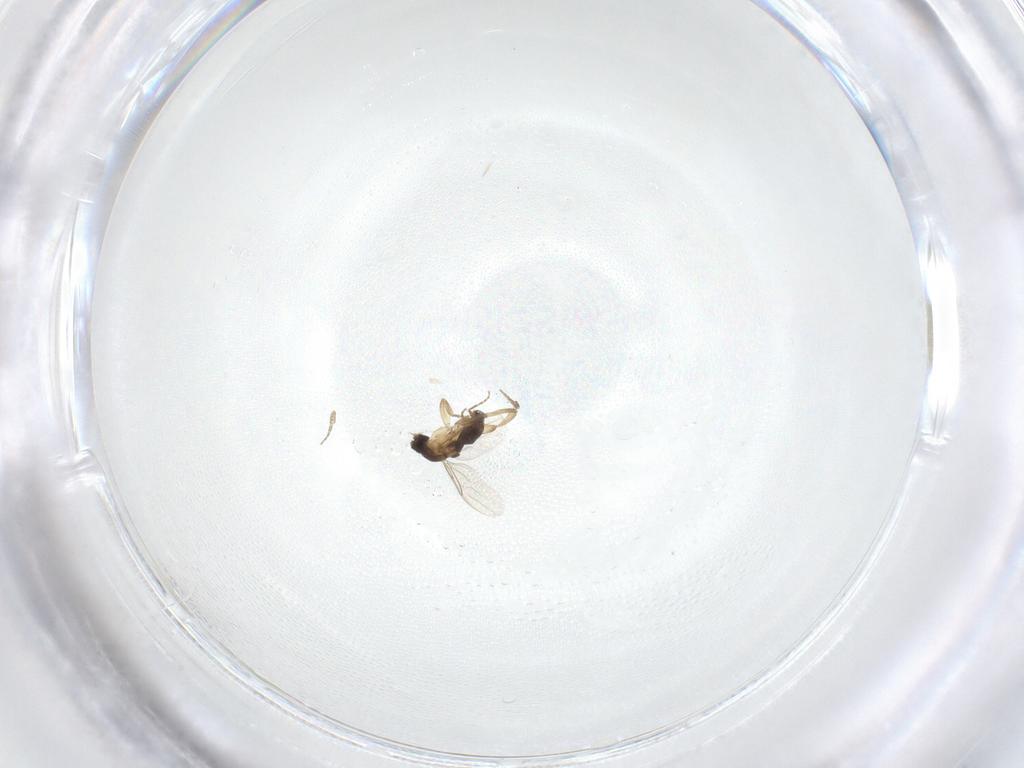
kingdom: Animalia
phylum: Arthropoda
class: Insecta
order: Diptera
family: Phoridae
